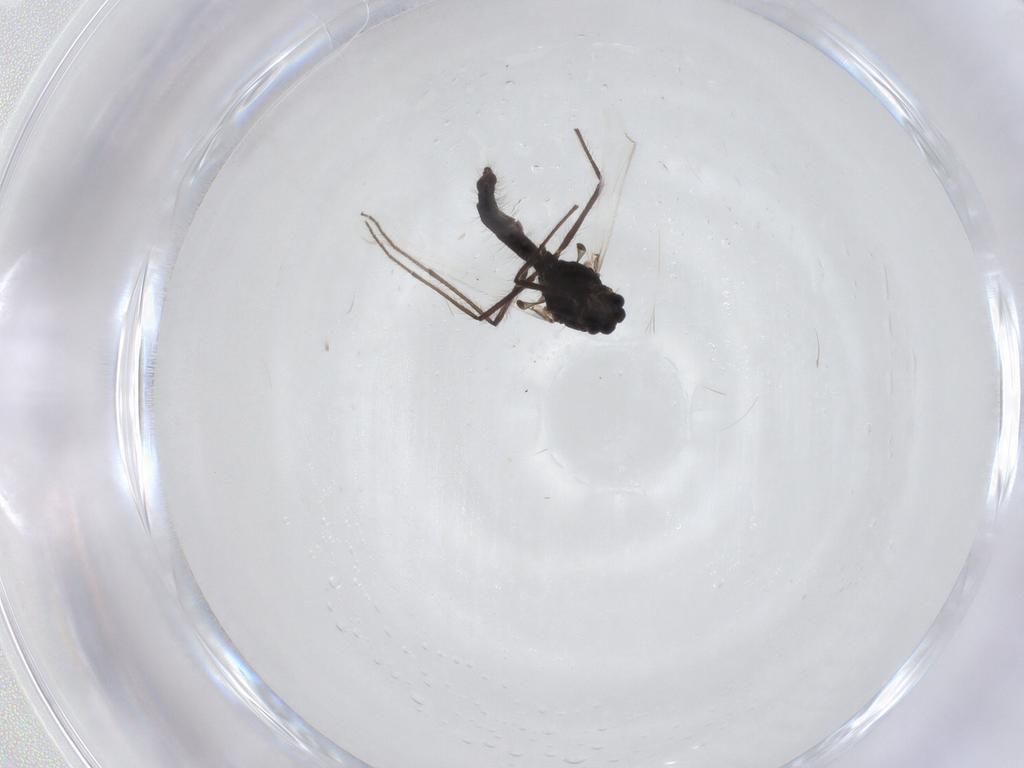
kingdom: Animalia
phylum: Arthropoda
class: Insecta
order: Diptera
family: Chironomidae
